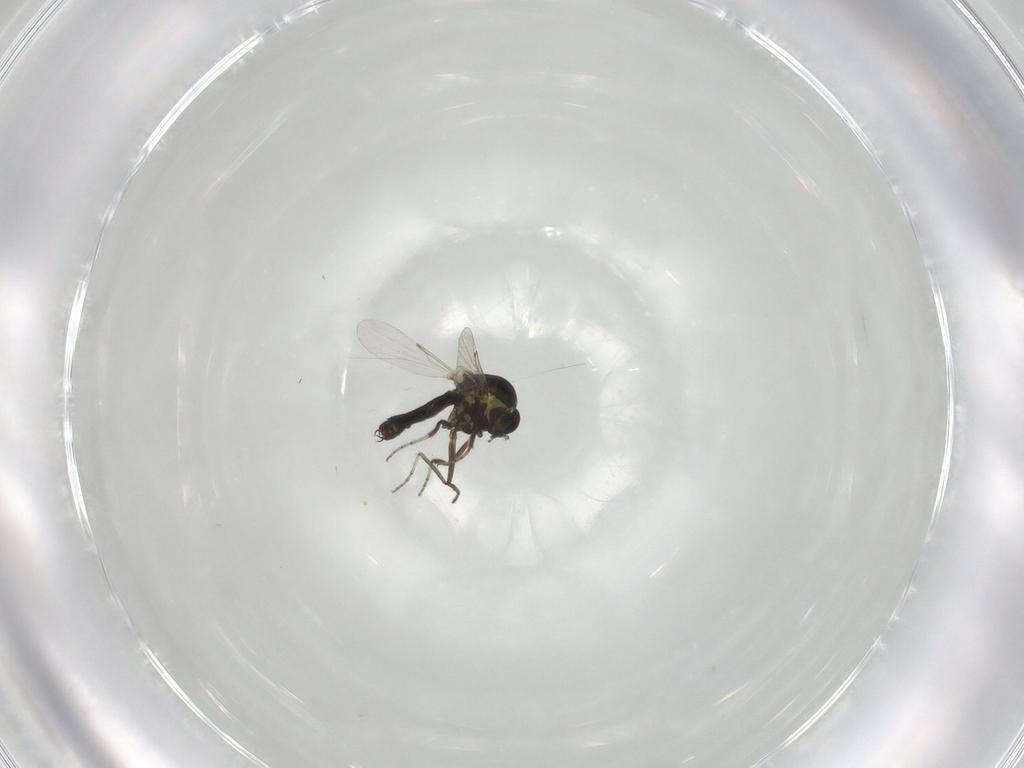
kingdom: Animalia
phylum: Arthropoda
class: Insecta
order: Diptera
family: Ceratopogonidae
